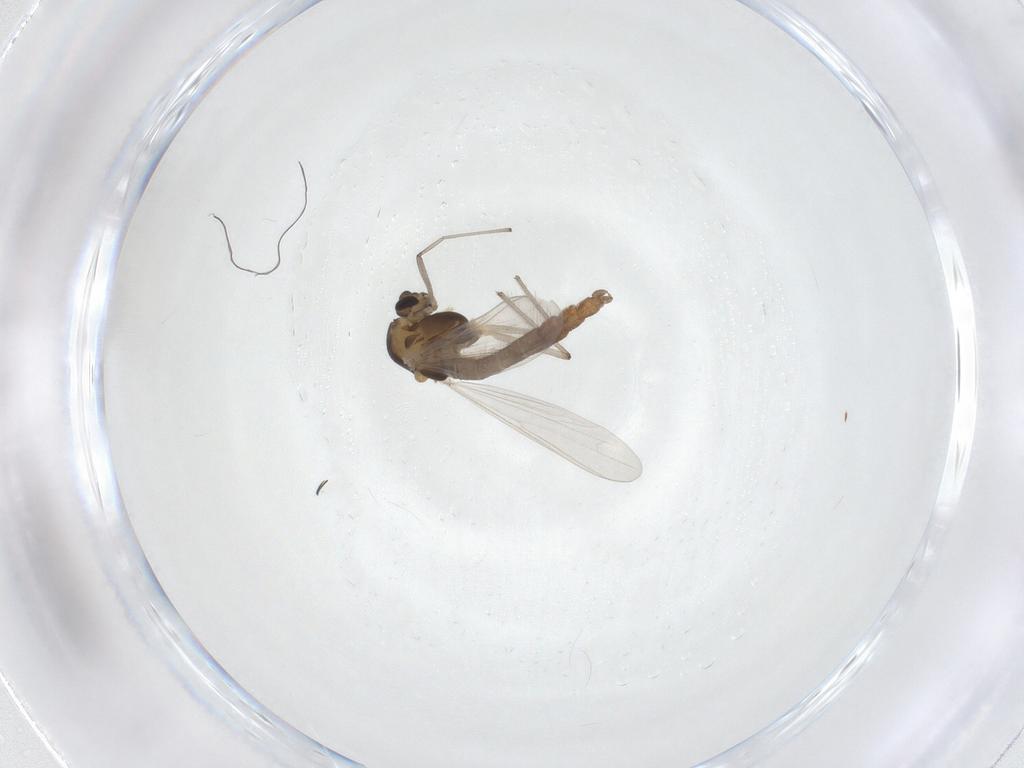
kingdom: Animalia
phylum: Arthropoda
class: Insecta
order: Diptera
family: Chironomidae
